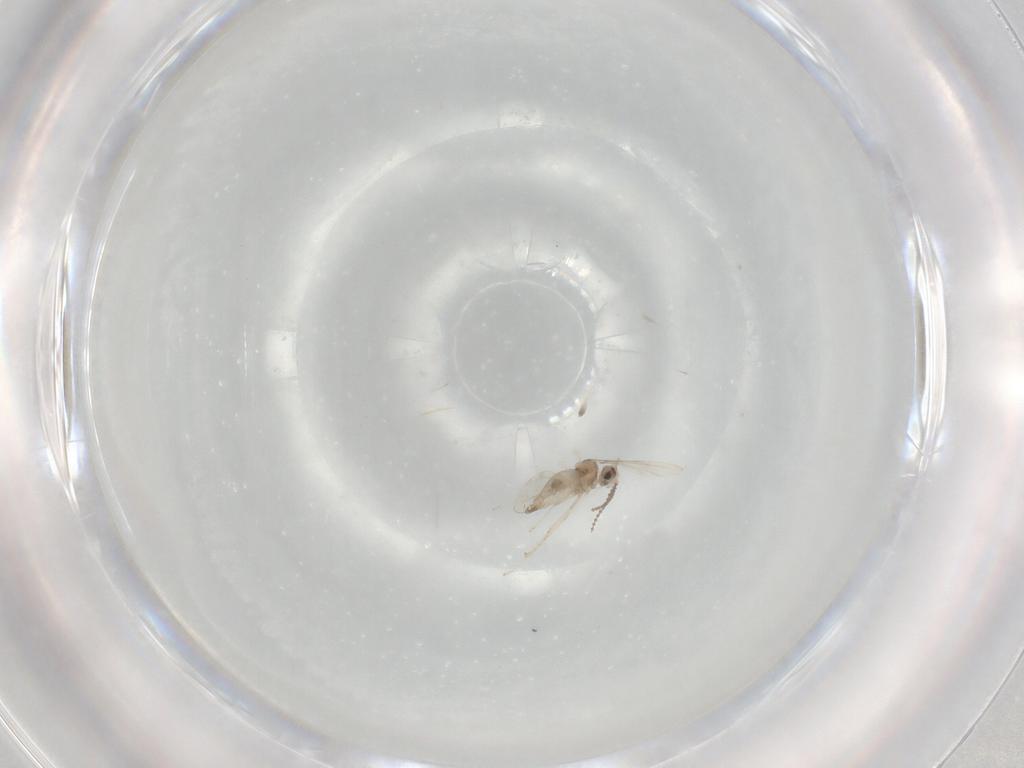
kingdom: Animalia
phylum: Arthropoda
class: Insecta
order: Diptera
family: Cecidomyiidae
